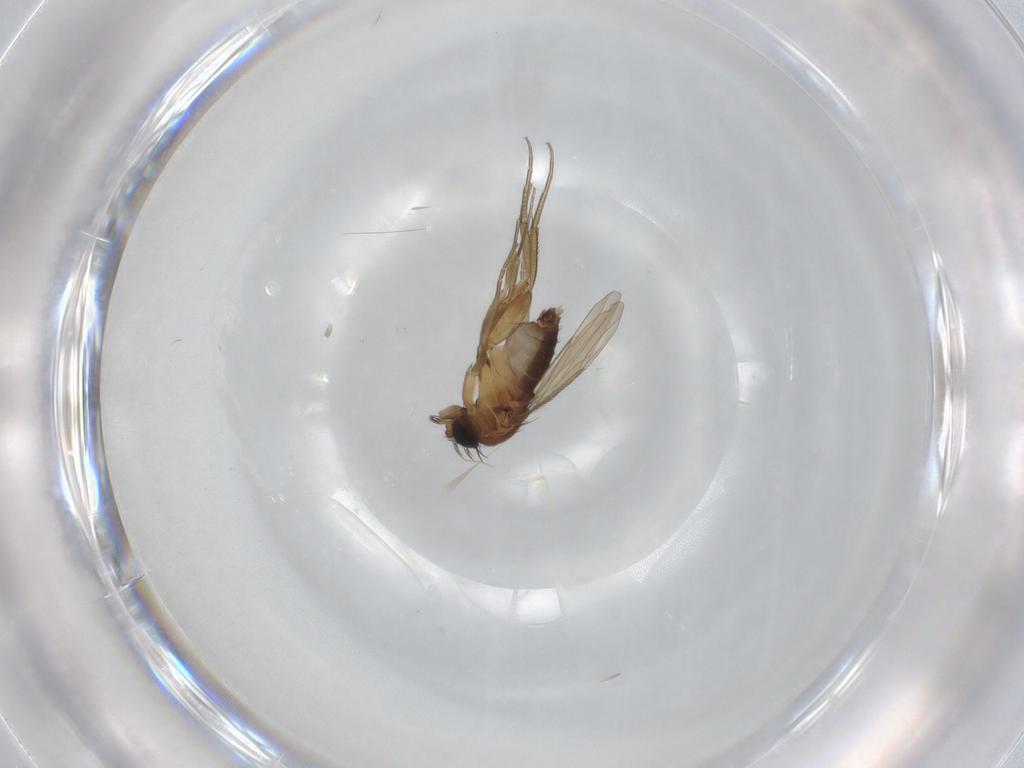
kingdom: Animalia
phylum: Arthropoda
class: Insecta
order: Diptera
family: Phoridae
